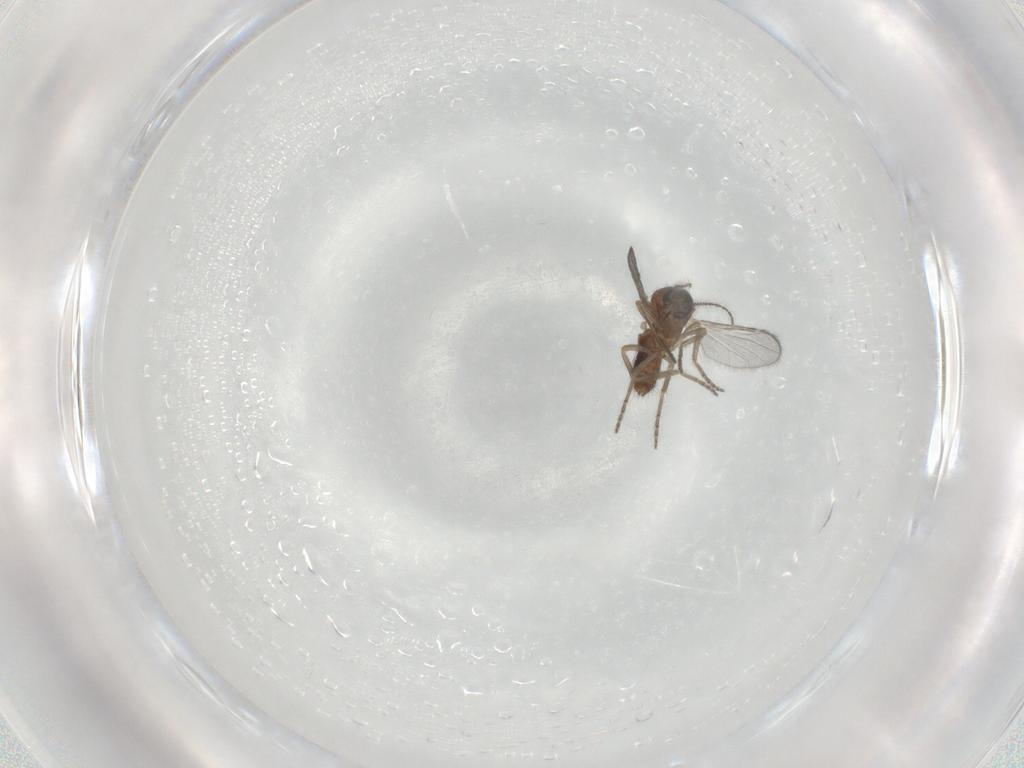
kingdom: Animalia
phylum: Arthropoda
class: Insecta
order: Diptera
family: Ceratopogonidae
